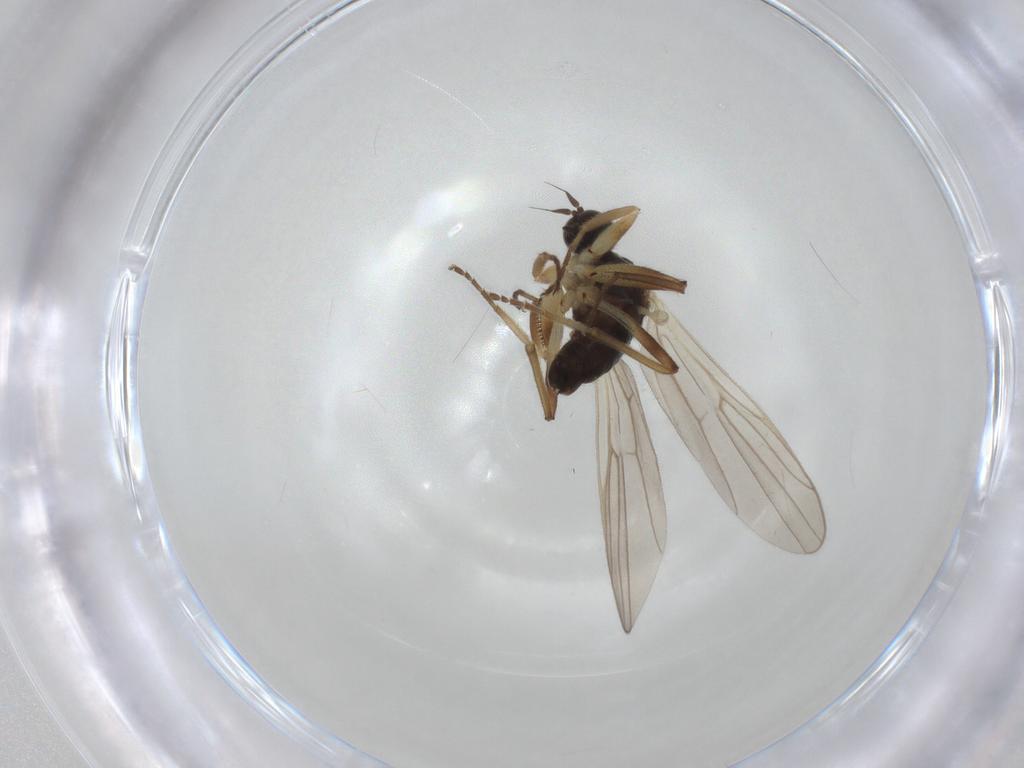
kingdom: Animalia
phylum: Arthropoda
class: Insecta
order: Diptera
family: Hybotidae
